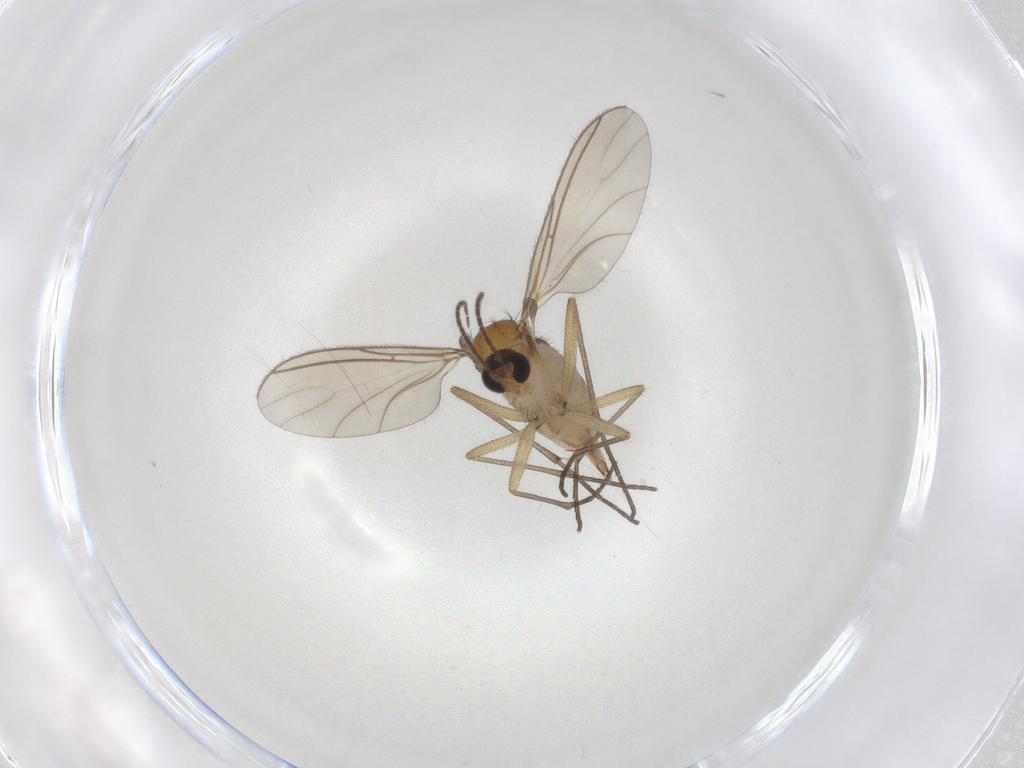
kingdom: Animalia
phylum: Arthropoda
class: Insecta
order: Diptera
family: Sciaridae
